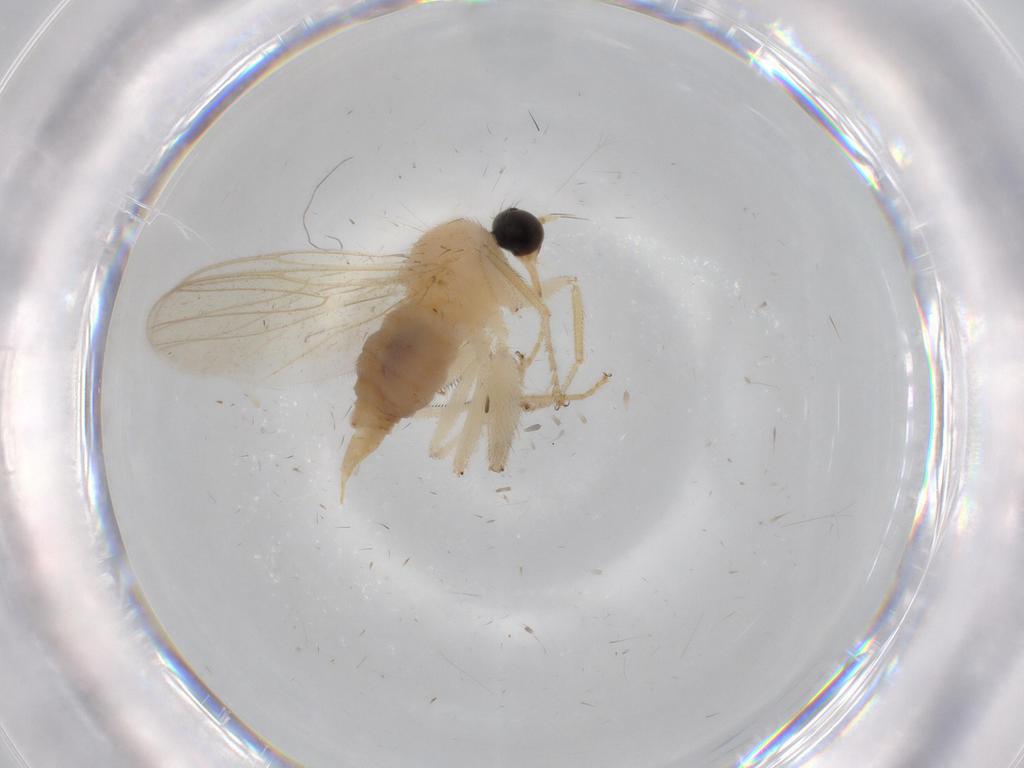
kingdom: Animalia
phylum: Arthropoda
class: Insecta
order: Diptera
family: Hybotidae
